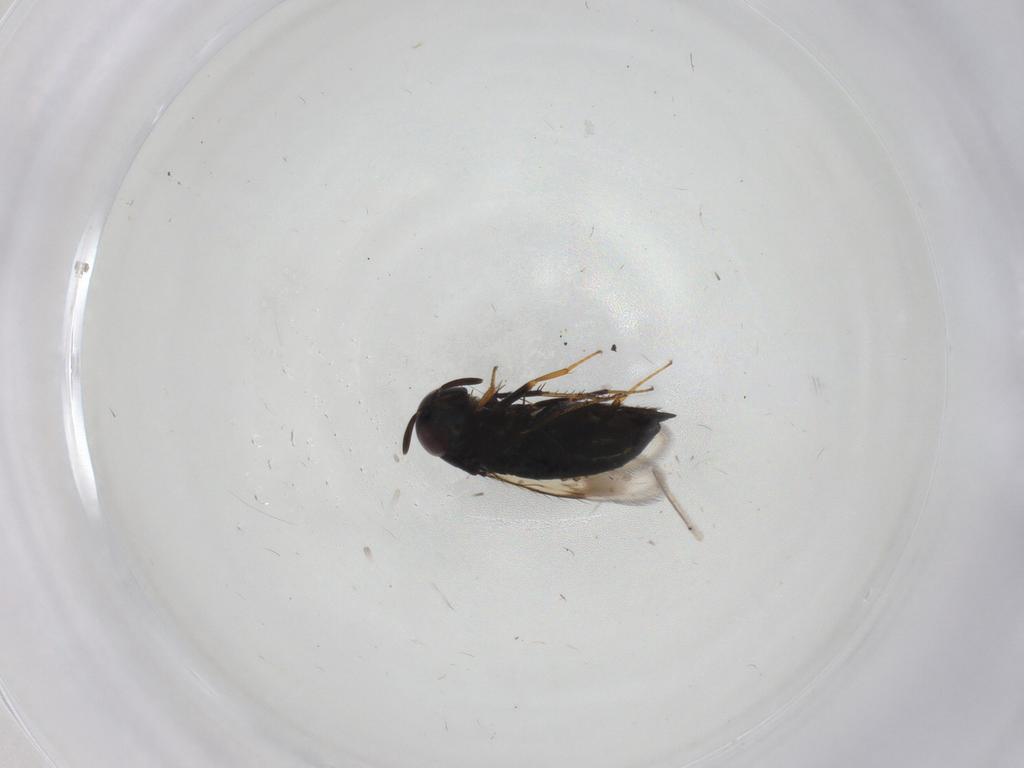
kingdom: Animalia
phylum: Arthropoda
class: Insecta
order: Hymenoptera
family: Signiphoridae
